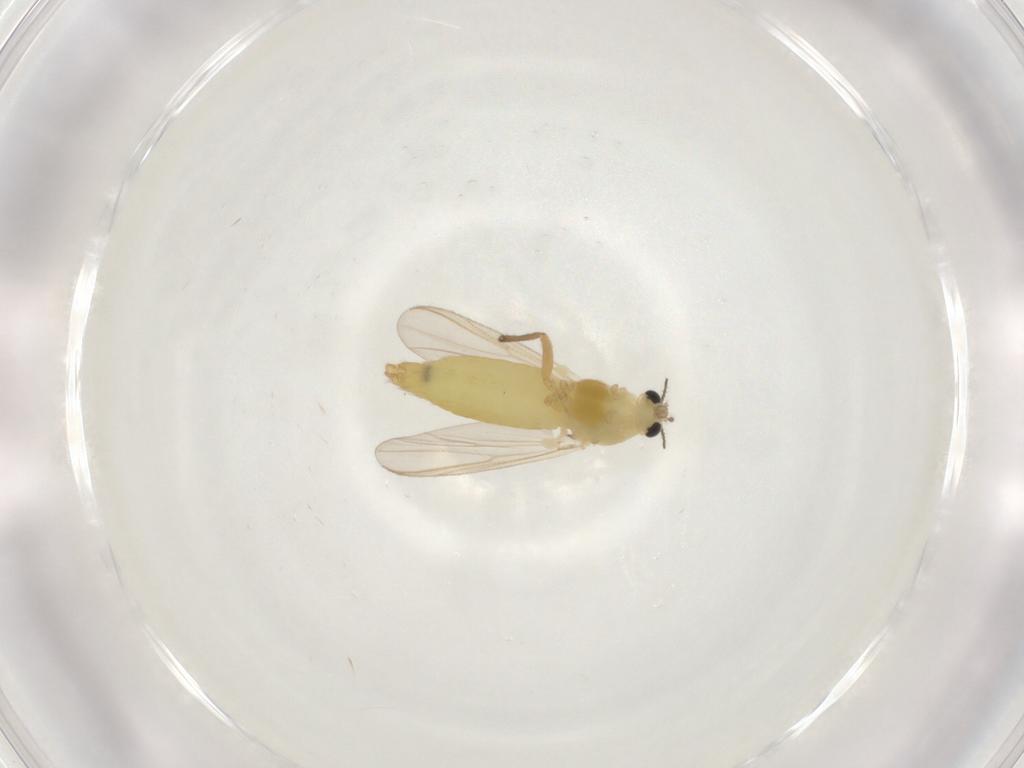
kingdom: Animalia
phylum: Arthropoda
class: Insecta
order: Diptera
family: Chironomidae
